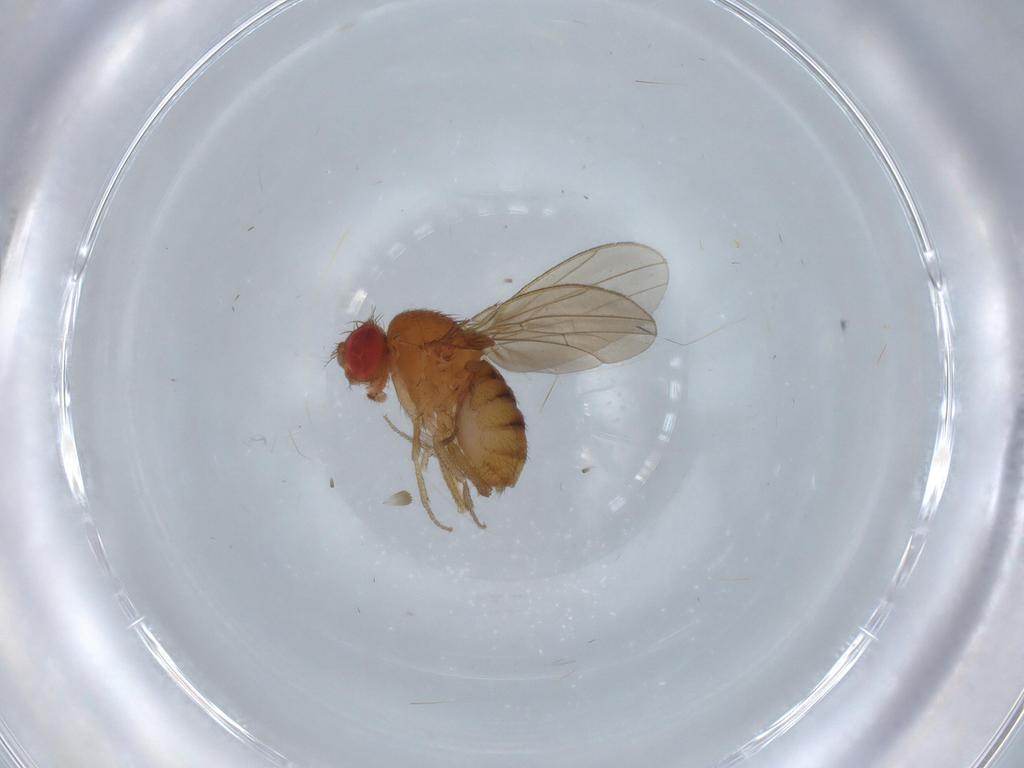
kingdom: Animalia
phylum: Arthropoda
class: Insecta
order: Diptera
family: Drosophilidae
